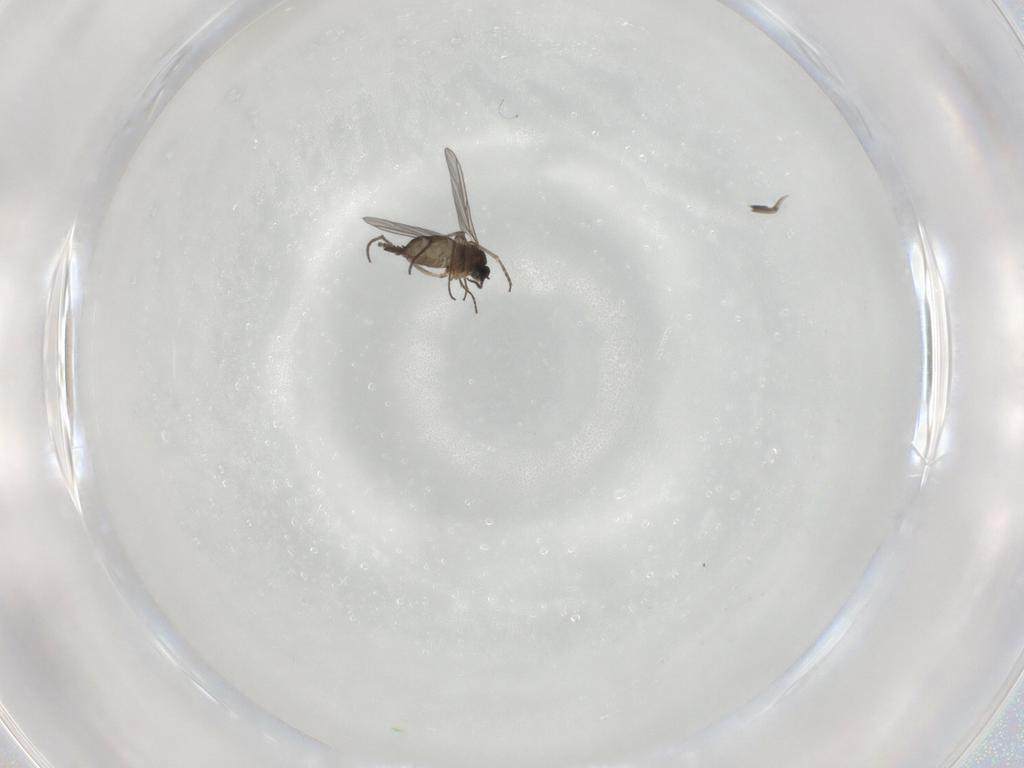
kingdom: Animalia
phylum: Arthropoda
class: Insecta
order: Diptera
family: Sciaridae
